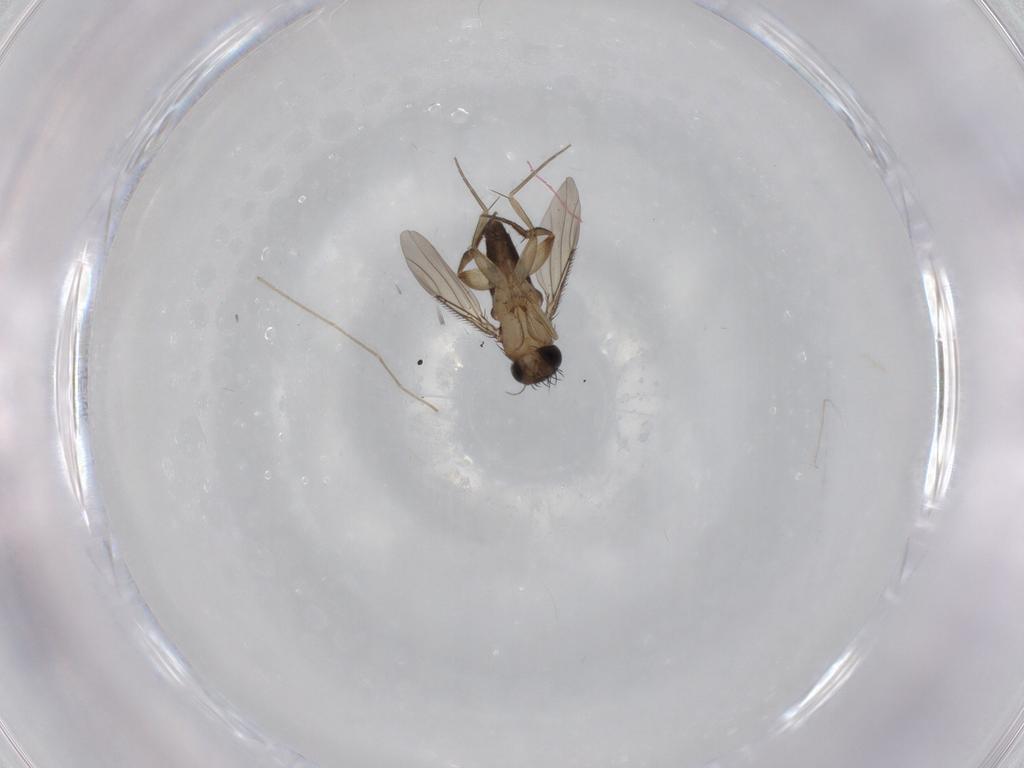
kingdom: Animalia
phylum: Arthropoda
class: Insecta
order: Diptera
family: Phoridae
